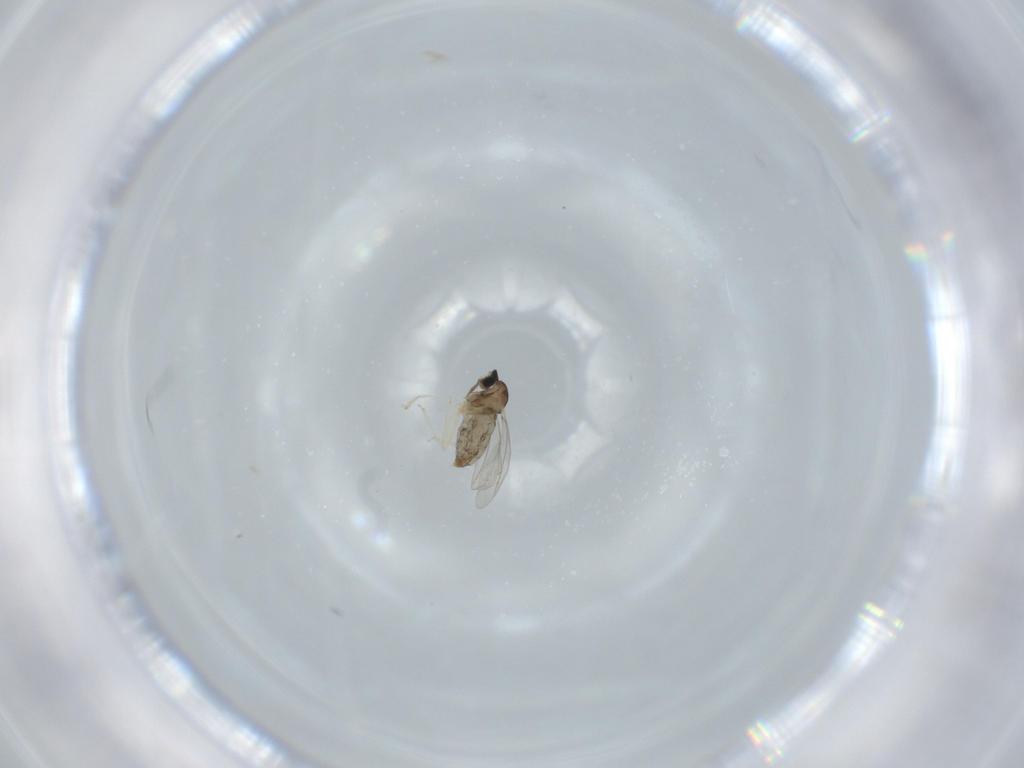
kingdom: Animalia
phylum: Arthropoda
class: Insecta
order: Diptera
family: Cecidomyiidae
